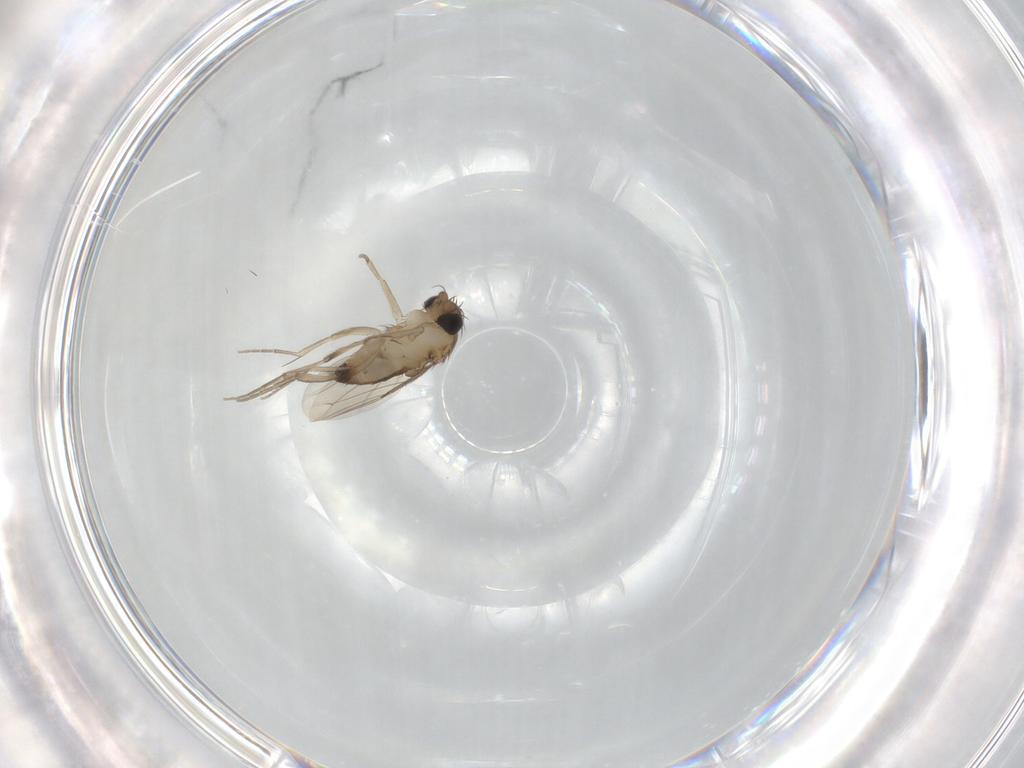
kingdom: Animalia
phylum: Arthropoda
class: Insecta
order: Diptera
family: Phoridae
